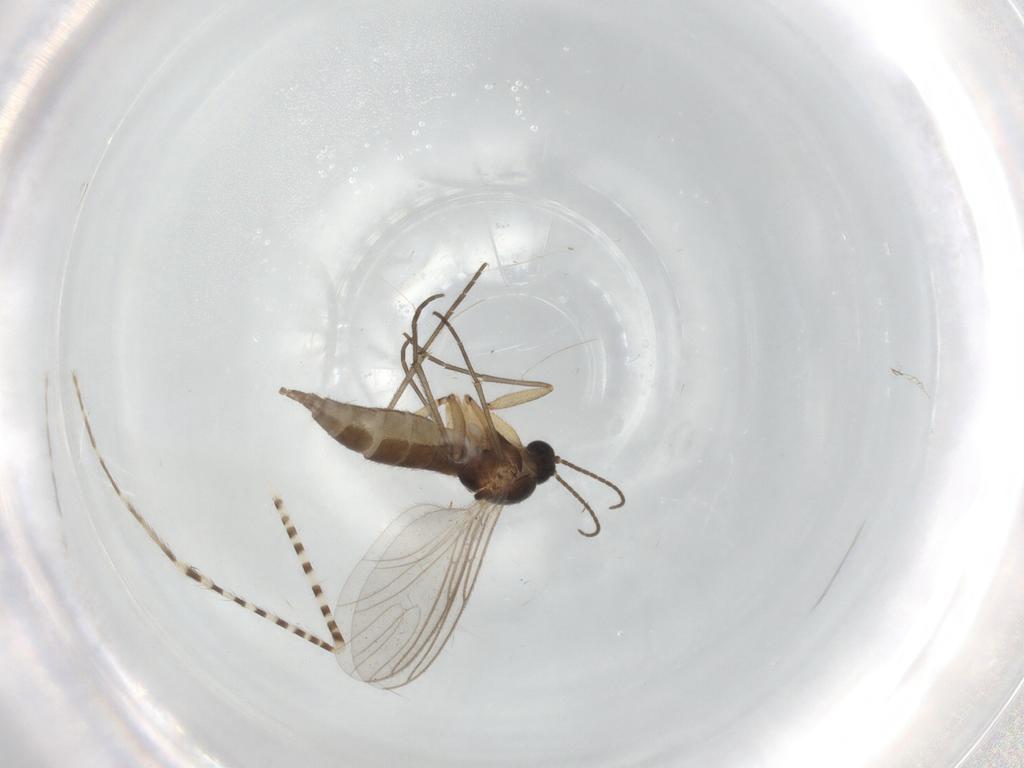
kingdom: Animalia
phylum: Arthropoda
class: Insecta
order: Diptera
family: Sciaridae
